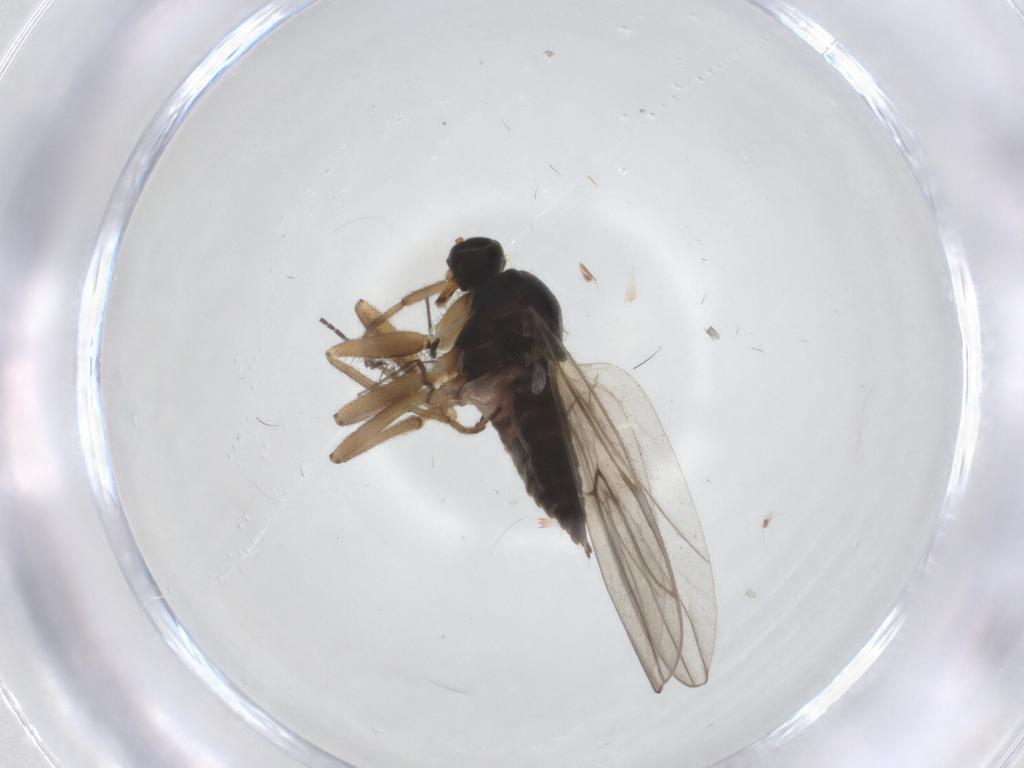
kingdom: Animalia
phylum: Arthropoda
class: Insecta
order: Diptera
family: Hybotidae
